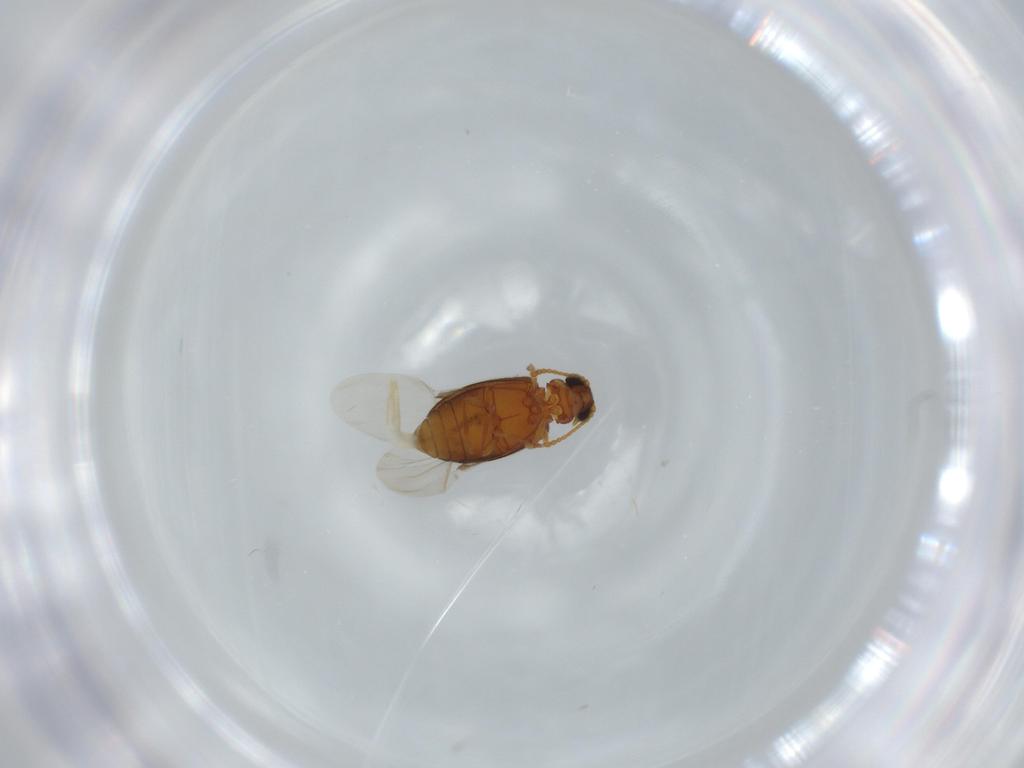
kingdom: Animalia
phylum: Arthropoda
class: Insecta
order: Coleoptera
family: Aderidae
